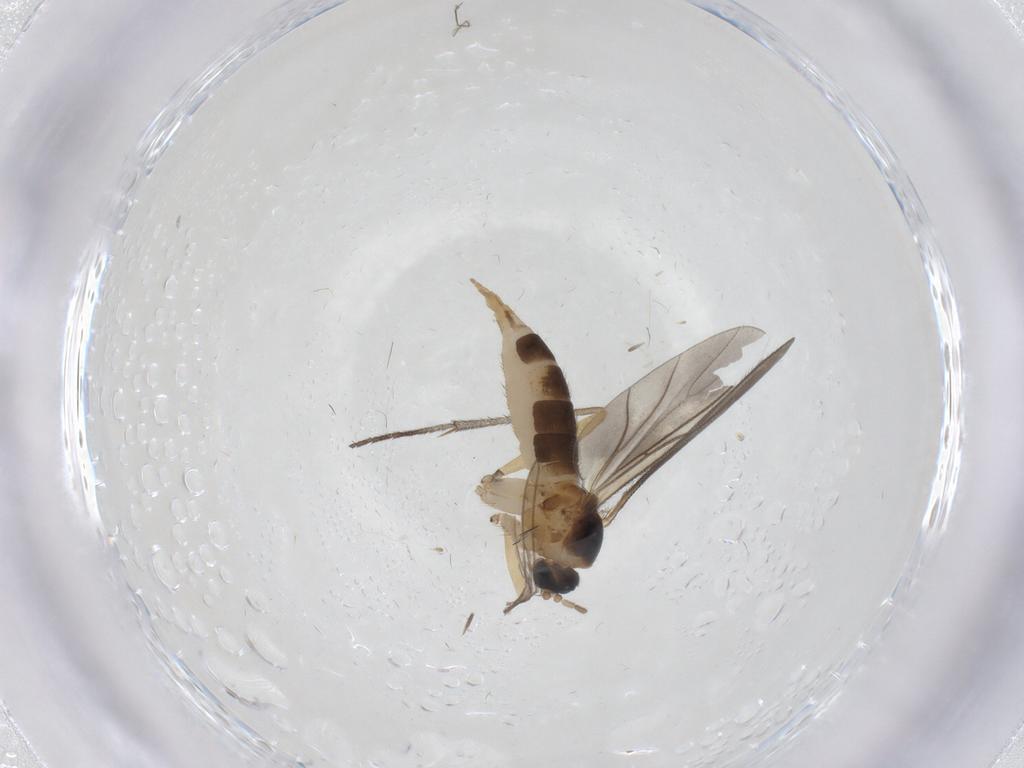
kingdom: Animalia
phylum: Arthropoda
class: Insecta
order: Diptera
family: Sciaridae
